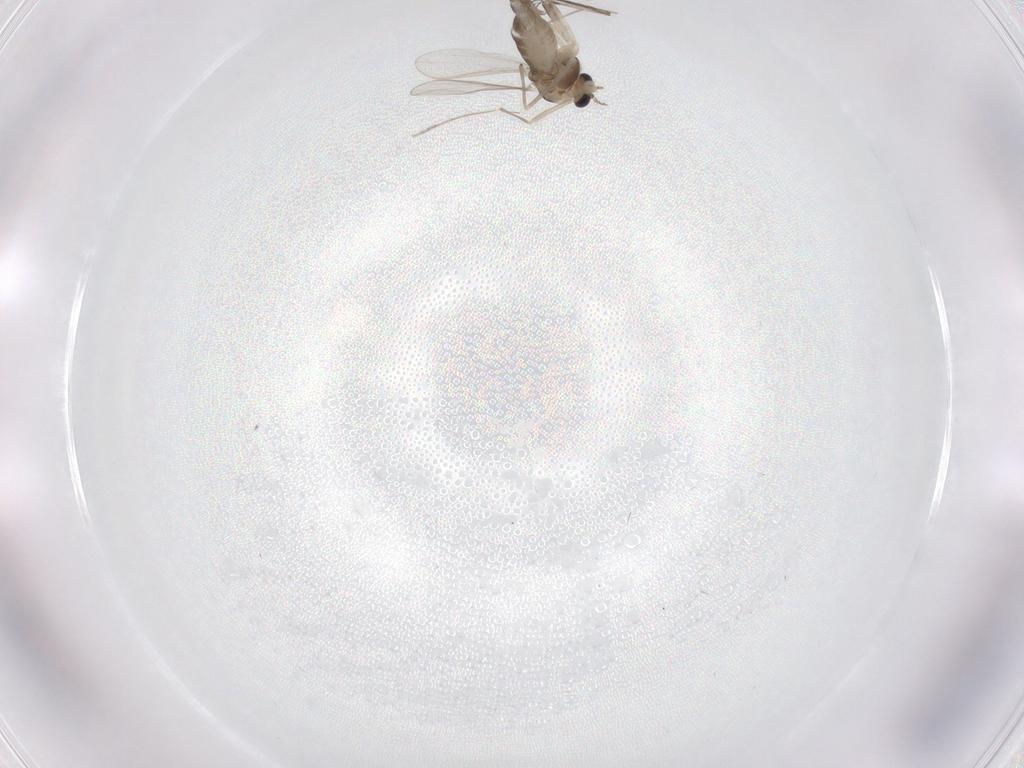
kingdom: Animalia
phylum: Arthropoda
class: Insecta
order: Diptera
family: Chironomidae
